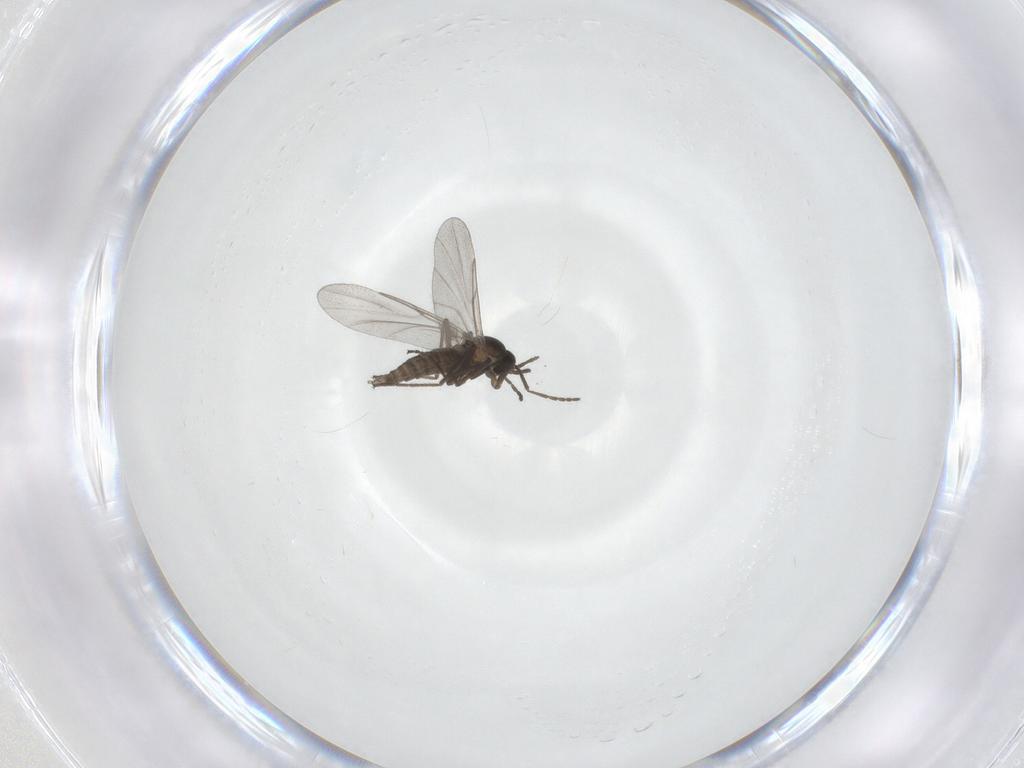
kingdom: Animalia
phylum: Arthropoda
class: Insecta
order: Diptera
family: Cecidomyiidae
